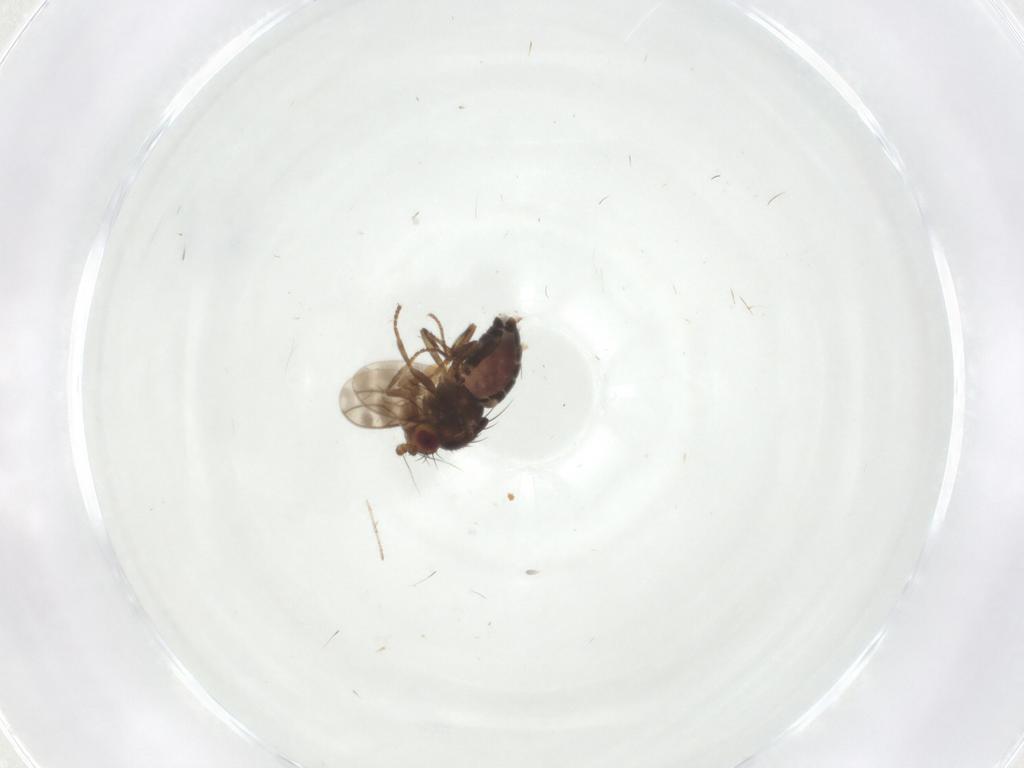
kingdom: Animalia
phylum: Arthropoda
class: Insecta
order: Diptera
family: Sphaeroceridae
